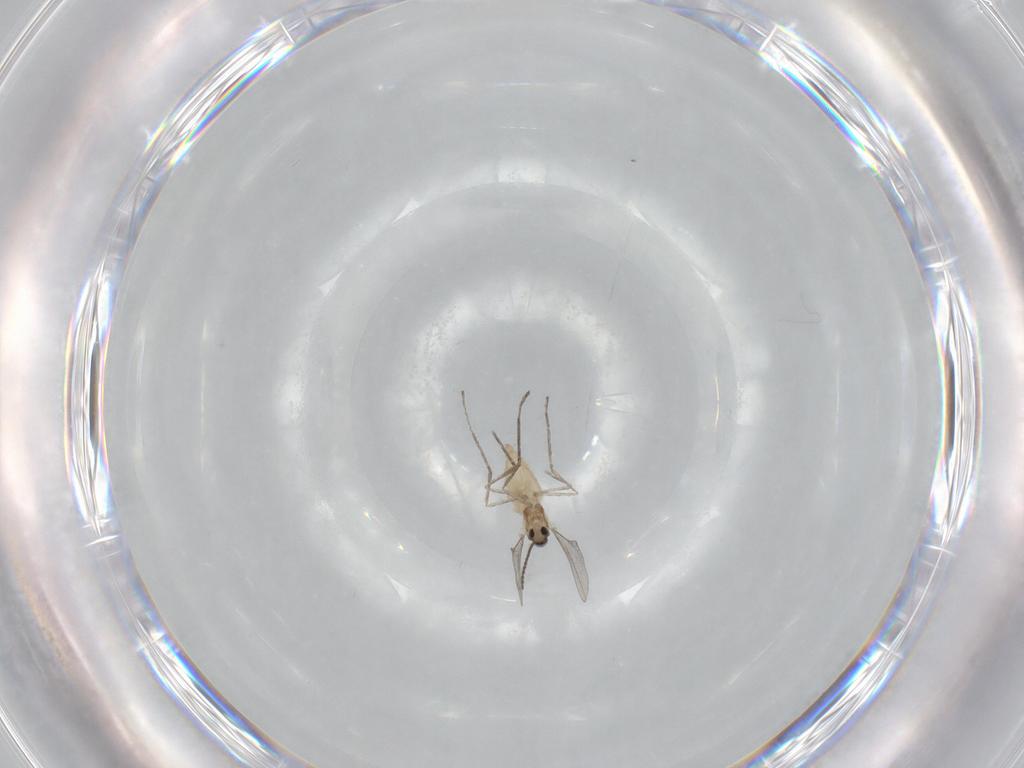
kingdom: Animalia
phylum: Arthropoda
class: Insecta
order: Diptera
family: Cecidomyiidae
